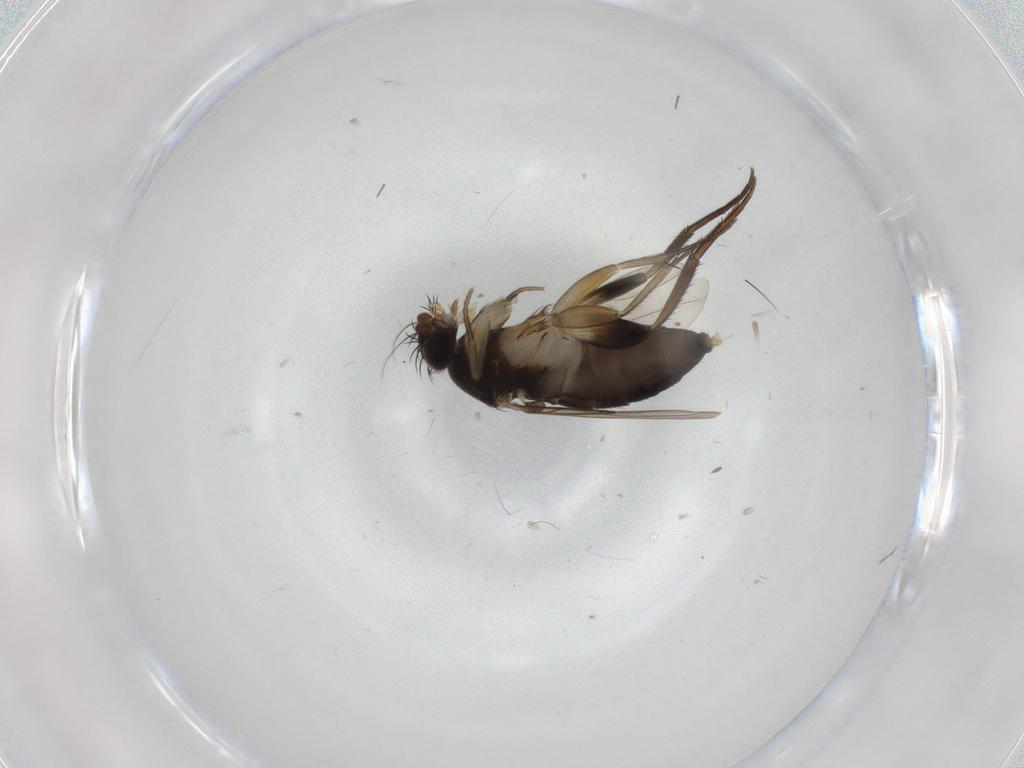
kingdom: Animalia
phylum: Arthropoda
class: Insecta
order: Diptera
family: Phoridae
